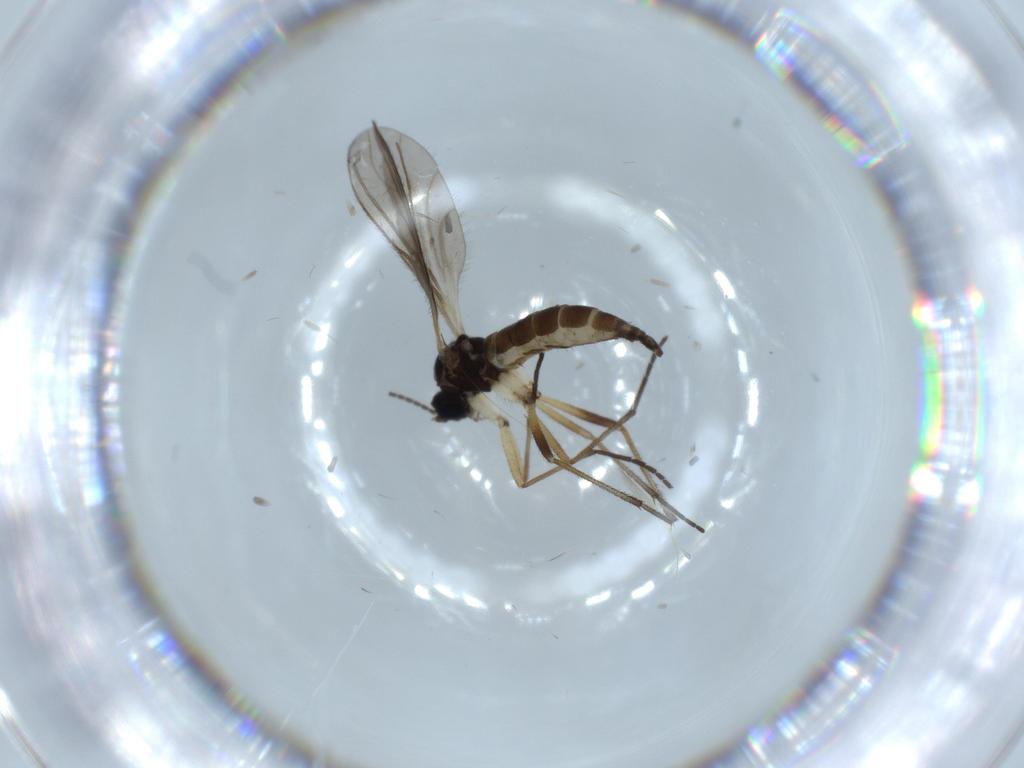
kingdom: Animalia
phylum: Arthropoda
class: Insecta
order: Diptera
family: Sciaridae
